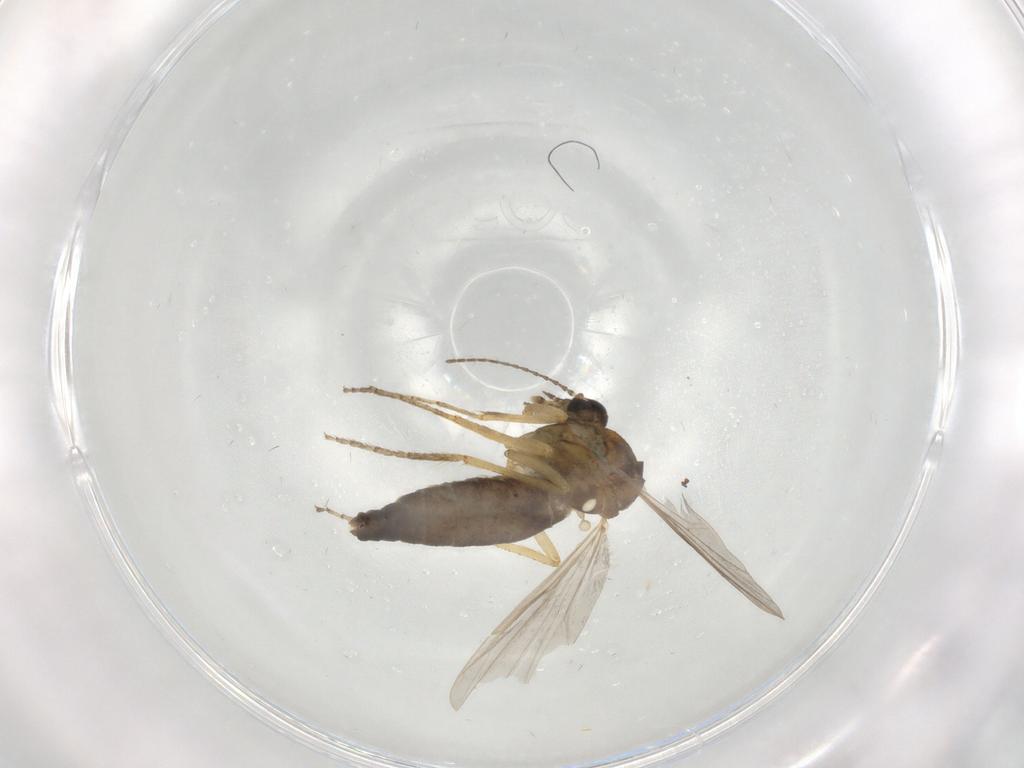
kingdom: Animalia
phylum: Arthropoda
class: Insecta
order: Diptera
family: Ceratopogonidae
